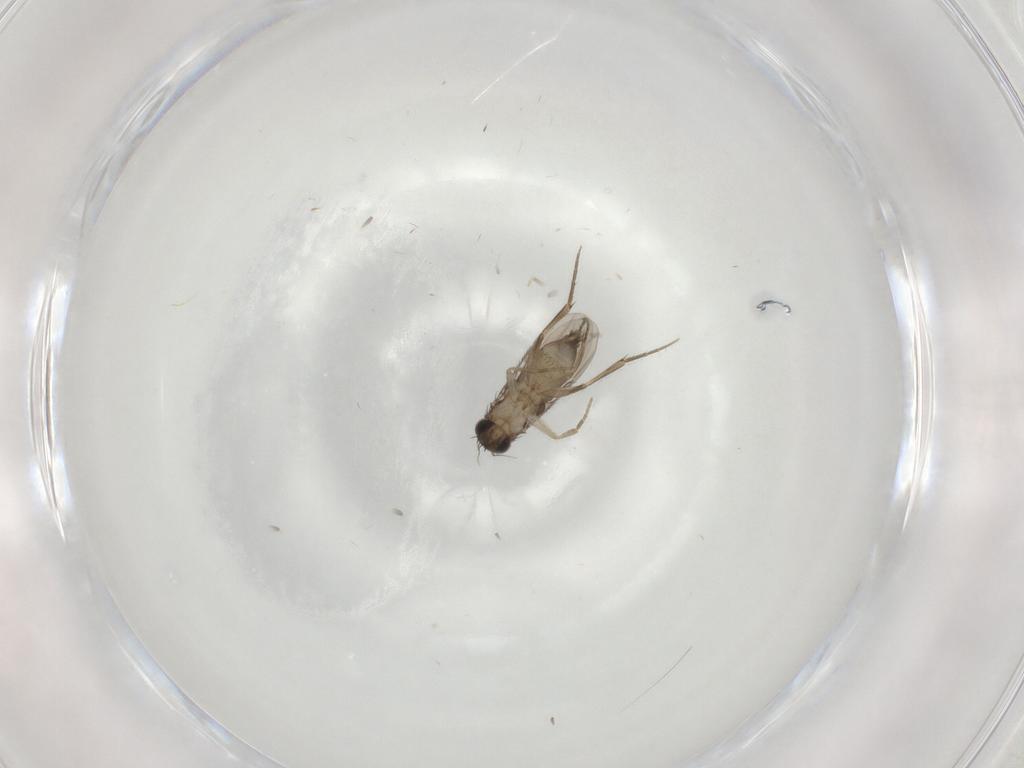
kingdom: Animalia
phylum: Arthropoda
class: Insecta
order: Diptera
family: Phoridae
